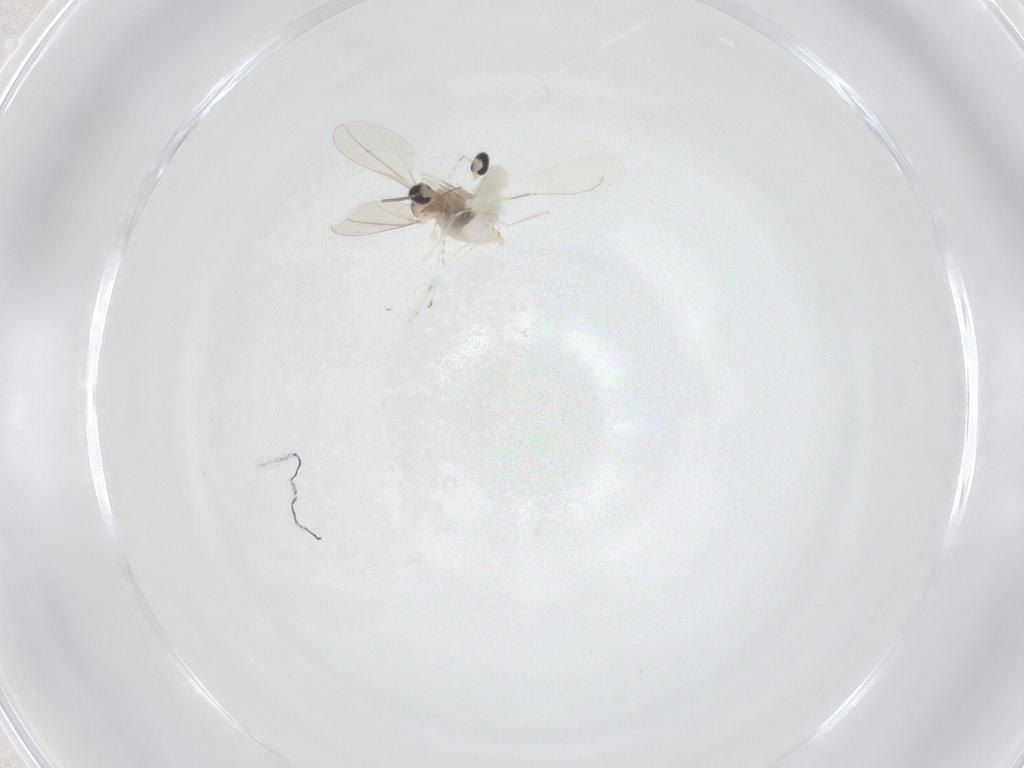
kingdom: Animalia
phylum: Arthropoda
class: Insecta
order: Diptera
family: Cecidomyiidae
